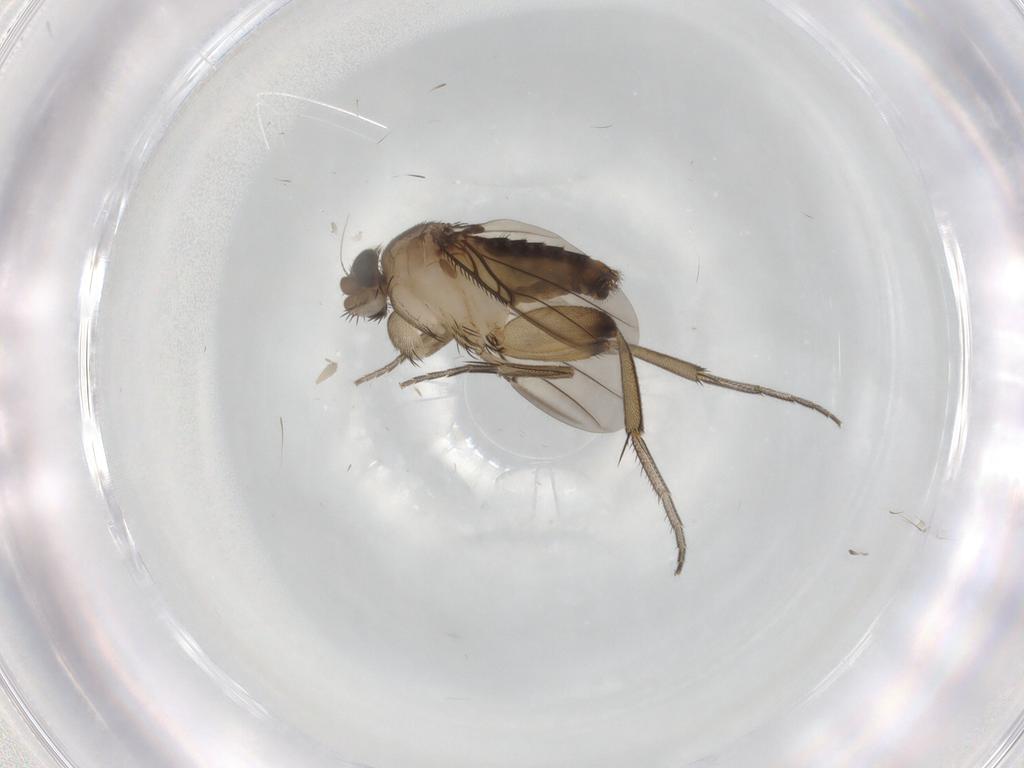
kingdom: Animalia
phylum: Arthropoda
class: Insecta
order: Diptera
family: Phoridae
